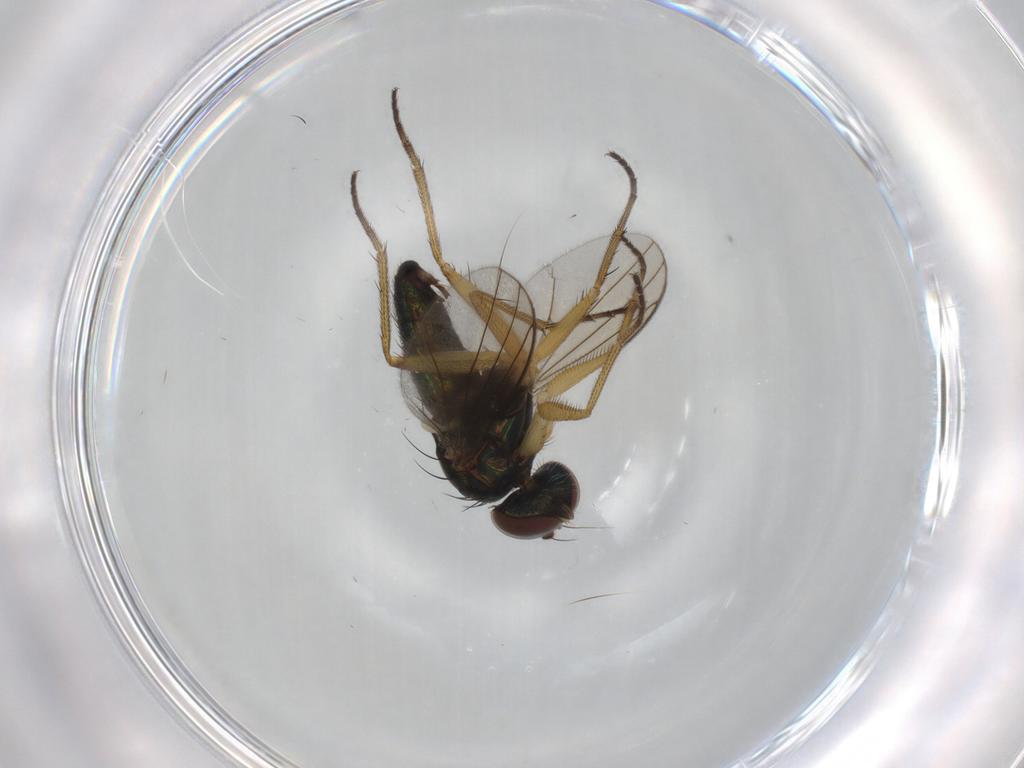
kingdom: Animalia
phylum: Arthropoda
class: Insecta
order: Diptera
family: Dolichopodidae
